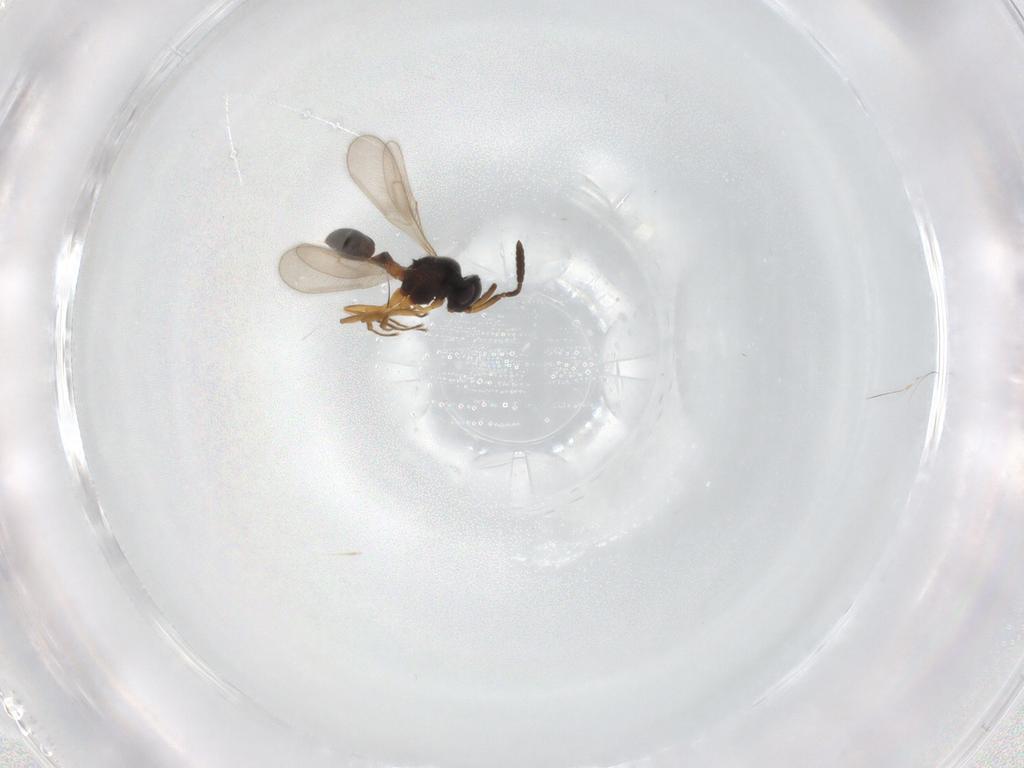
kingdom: Animalia
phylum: Arthropoda
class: Insecta
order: Hymenoptera
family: Scelionidae
